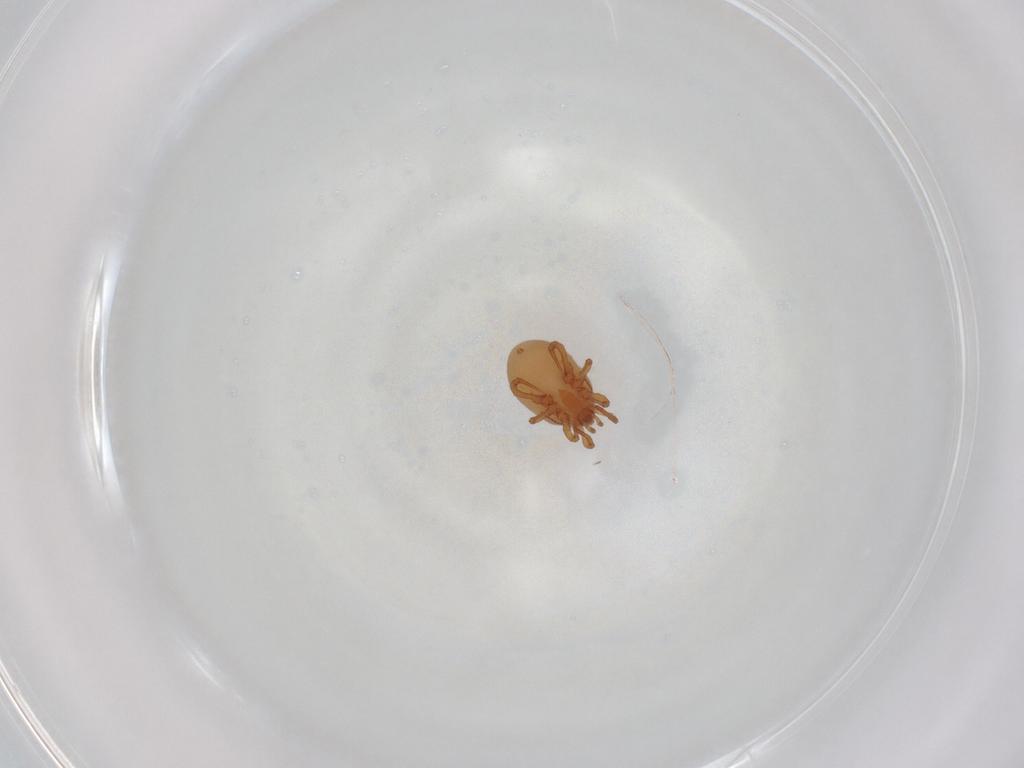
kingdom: Animalia
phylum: Arthropoda
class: Arachnida
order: Mesostigmata
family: Parasitidae
